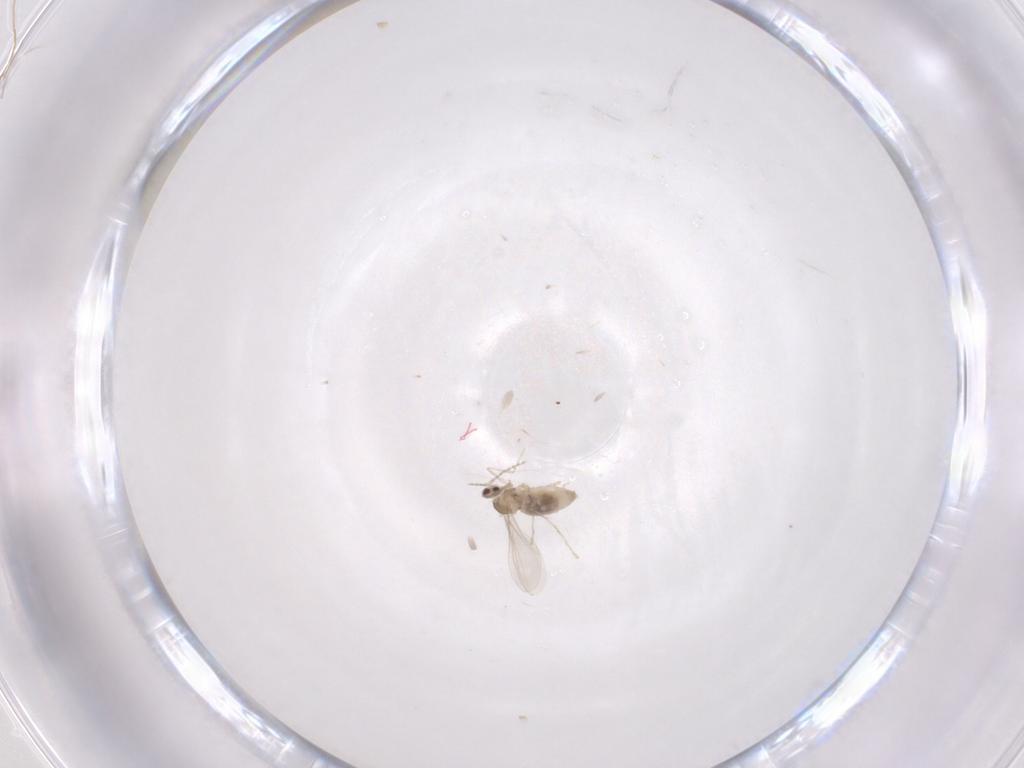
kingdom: Animalia
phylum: Arthropoda
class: Insecta
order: Diptera
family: Cecidomyiidae
